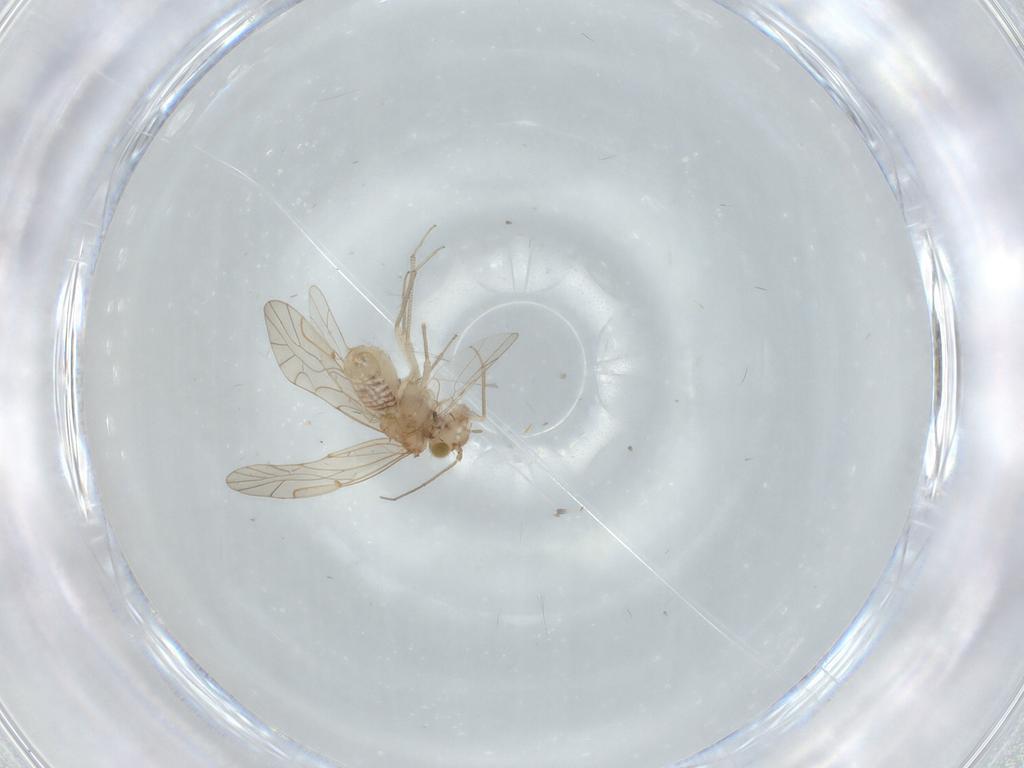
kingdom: Animalia
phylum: Arthropoda
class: Insecta
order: Psocodea
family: Lachesillidae
